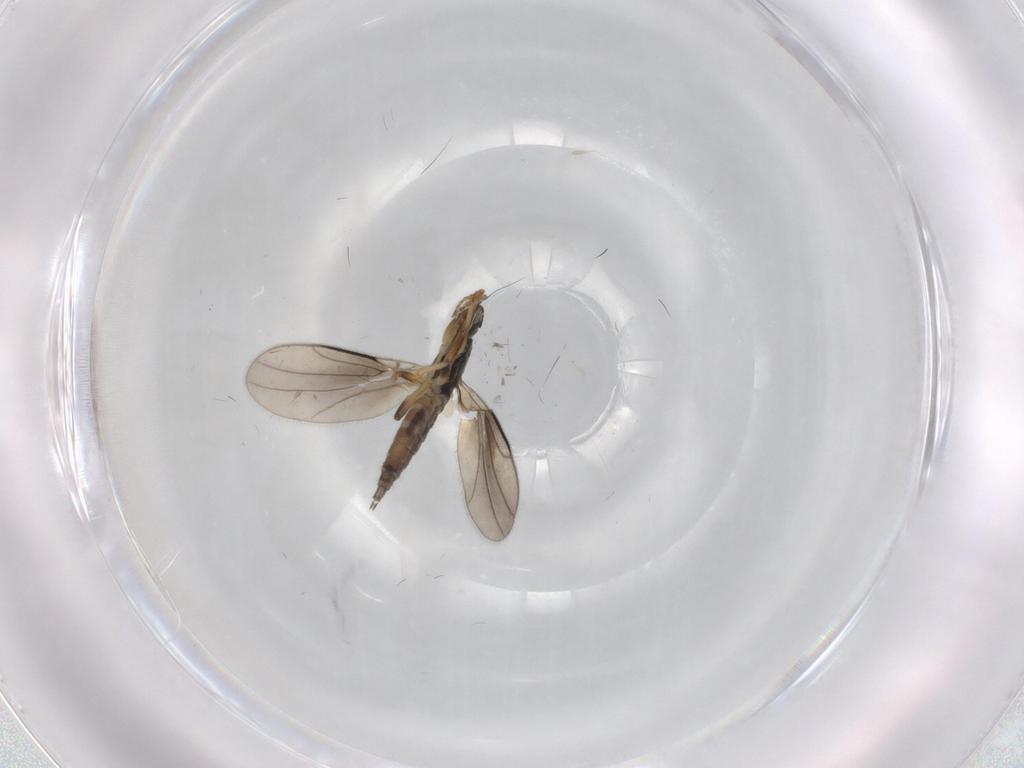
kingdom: Animalia
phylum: Arthropoda
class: Insecta
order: Diptera
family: Hybotidae
